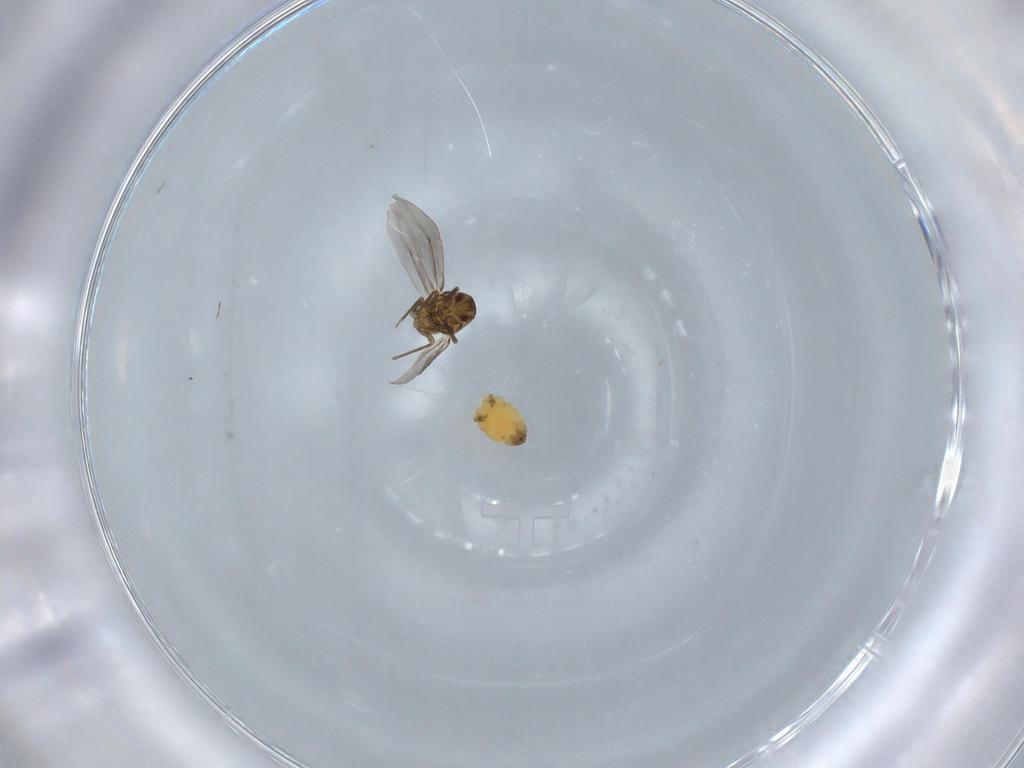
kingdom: Animalia
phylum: Arthropoda
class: Insecta
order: Hemiptera
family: Aleyrodidae
